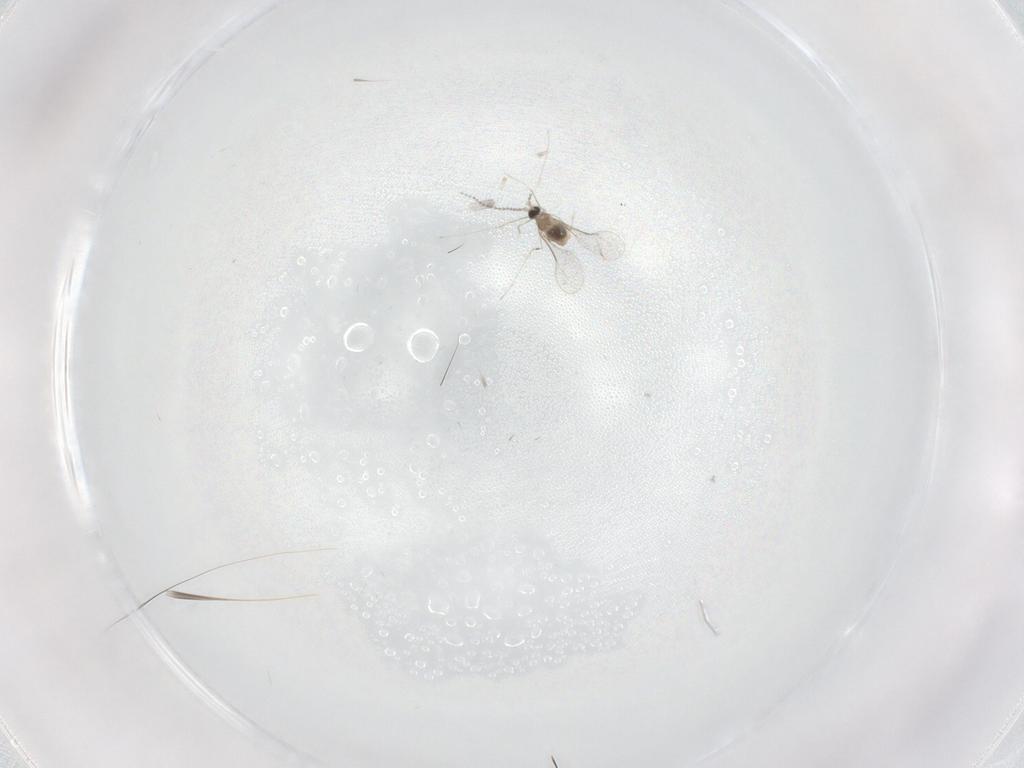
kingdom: Animalia
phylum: Arthropoda
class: Insecta
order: Diptera
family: Cecidomyiidae
